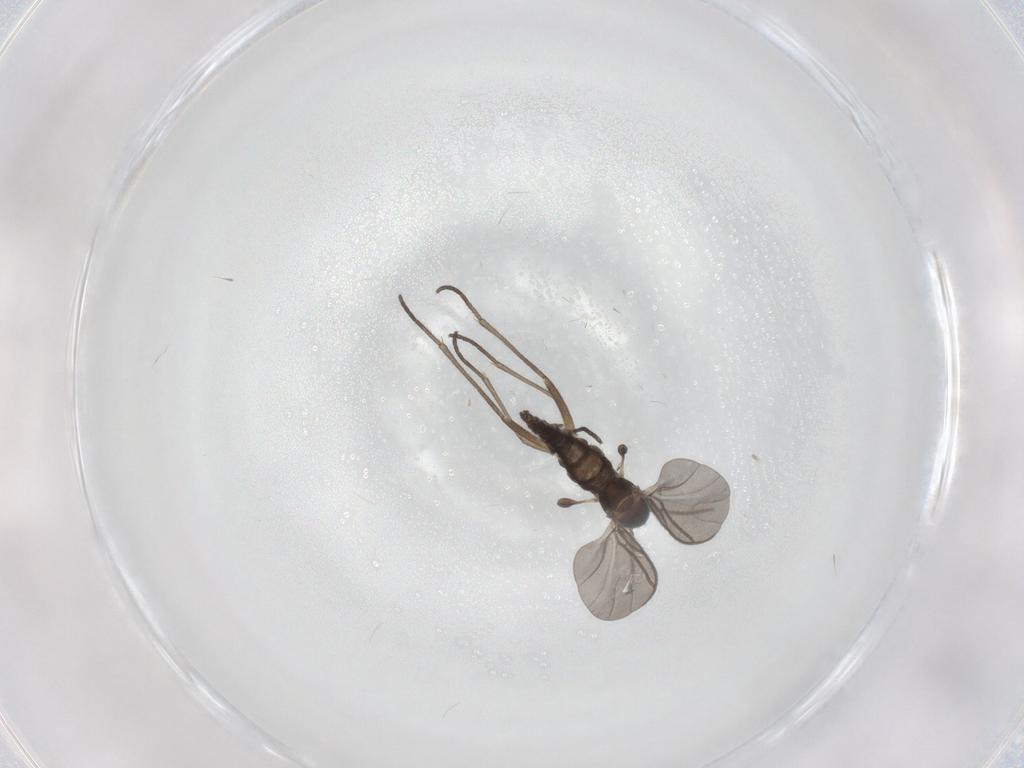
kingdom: Animalia
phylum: Arthropoda
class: Insecta
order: Diptera
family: Sciaridae
